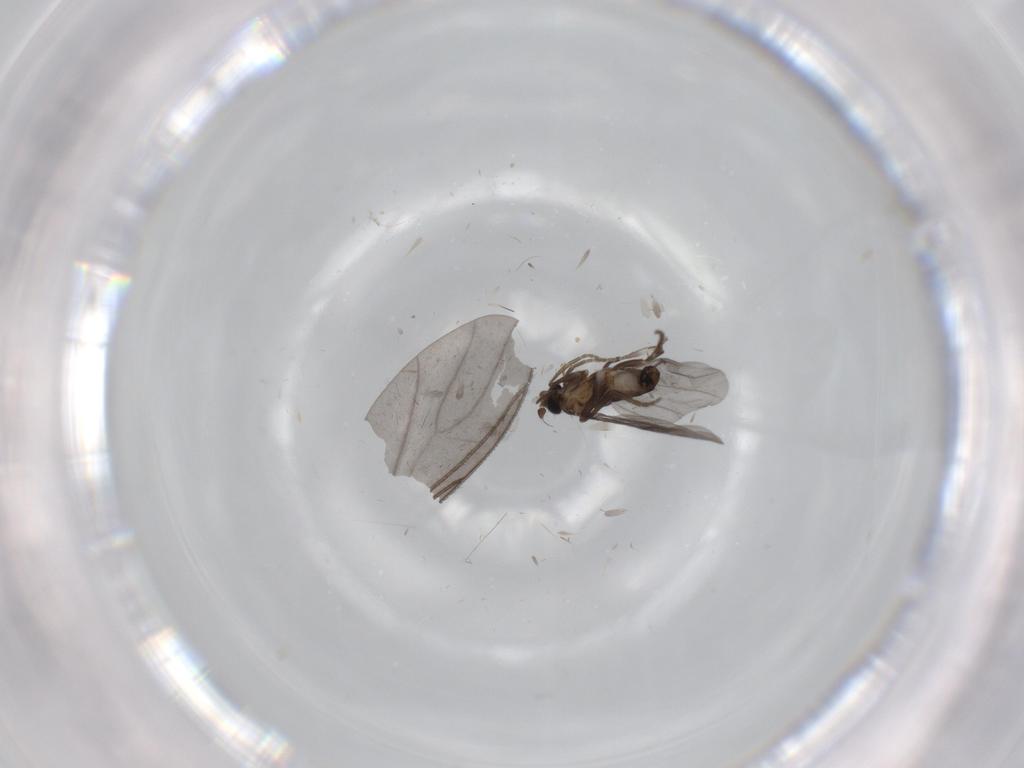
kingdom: Animalia
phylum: Arthropoda
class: Insecta
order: Diptera
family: Phoridae
